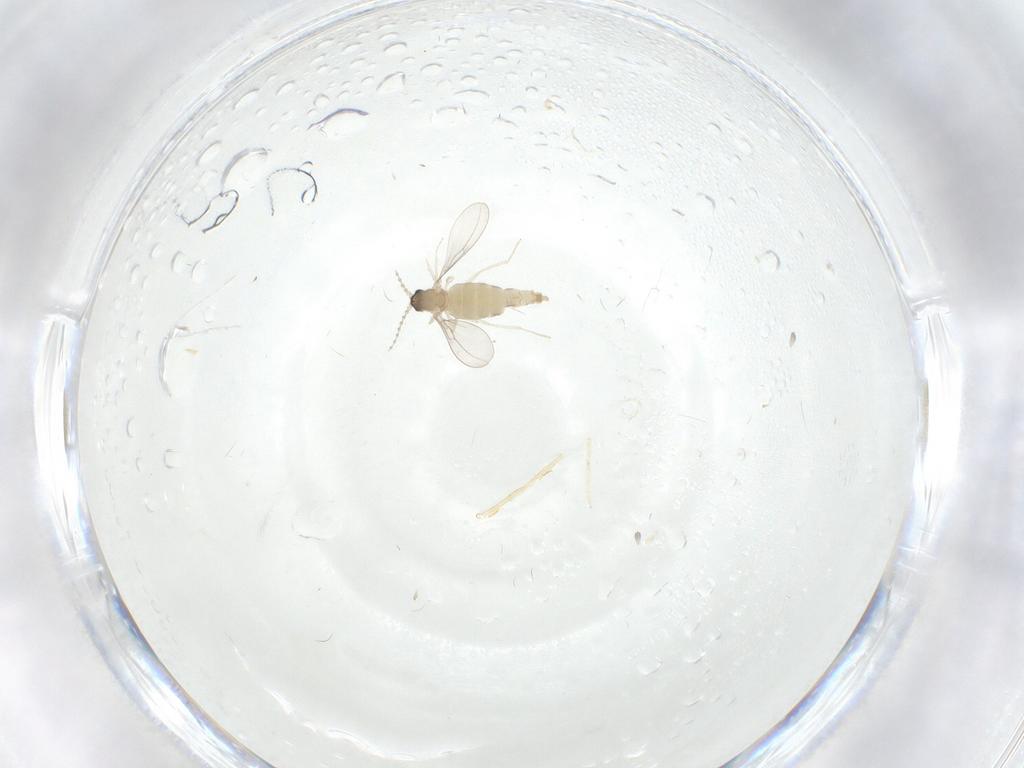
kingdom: Animalia
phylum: Arthropoda
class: Insecta
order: Diptera
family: Cecidomyiidae
